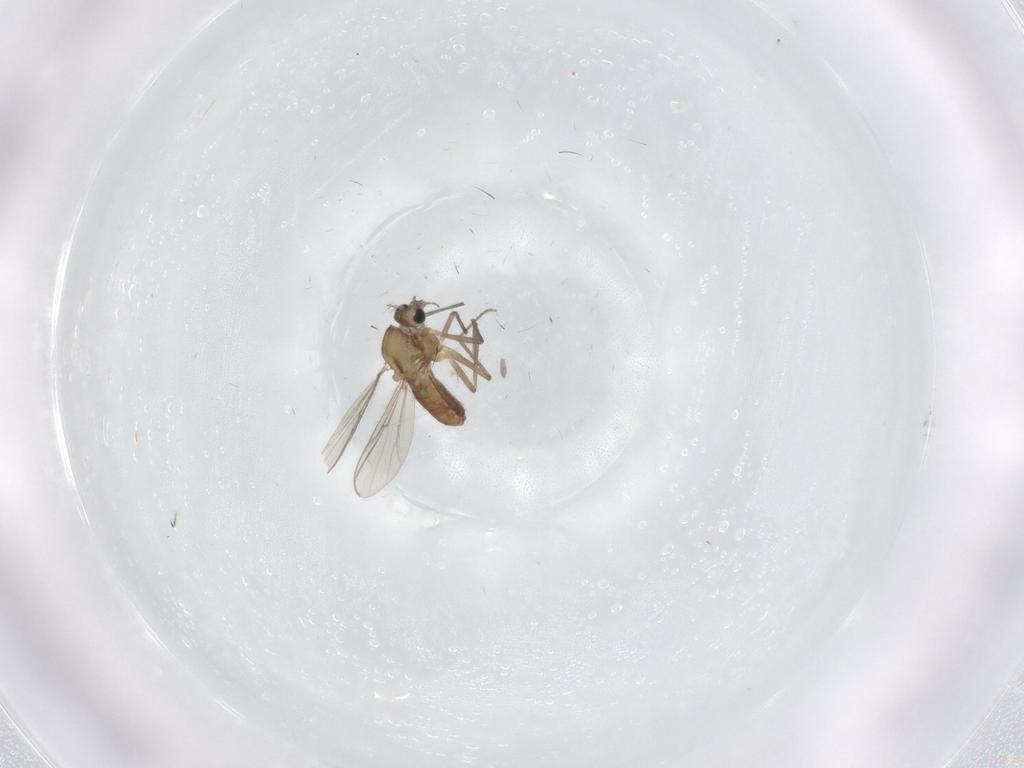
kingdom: Animalia
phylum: Arthropoda
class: Insecta
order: Diptera
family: Chironomidae
